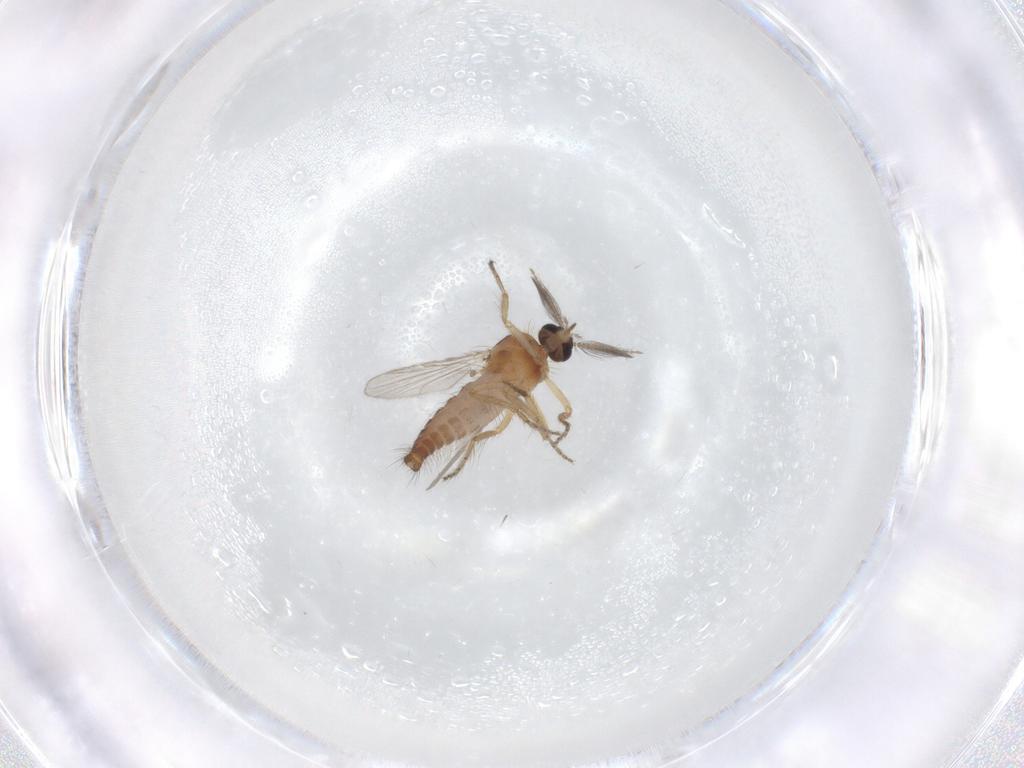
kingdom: Animalia
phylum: Arthropoda
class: Insecta
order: Diptera
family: Ceratopogonidae
